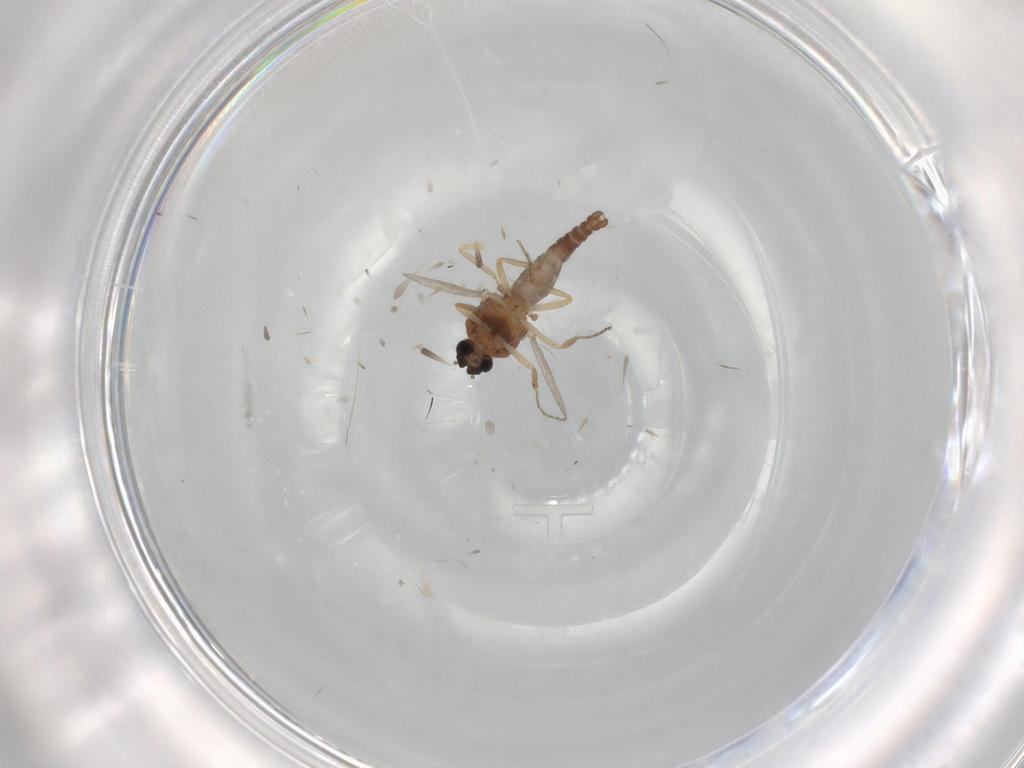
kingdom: Animalia
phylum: Arthropoda
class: Insecta
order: Diptera
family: Ceratopogonidae
